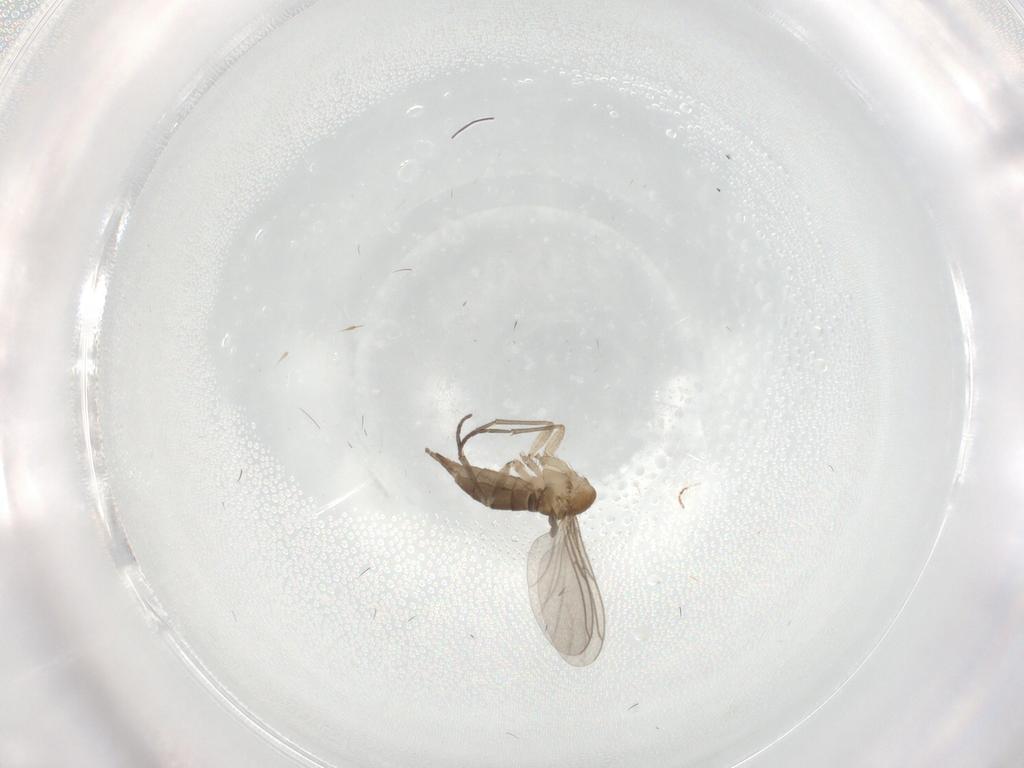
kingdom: Animalia
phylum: Arthropoda
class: Insecta
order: Diptera
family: Sciaridae
